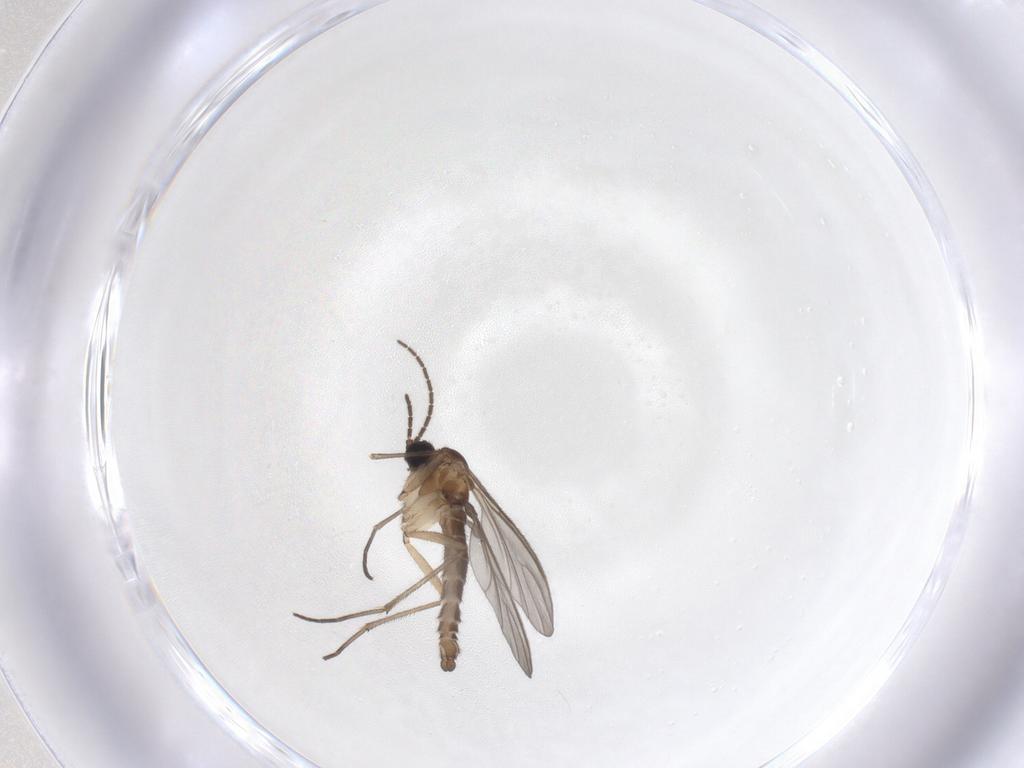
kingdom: Animalia
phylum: Arthropoda
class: Insecta
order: Diptera
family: Sciaridae
